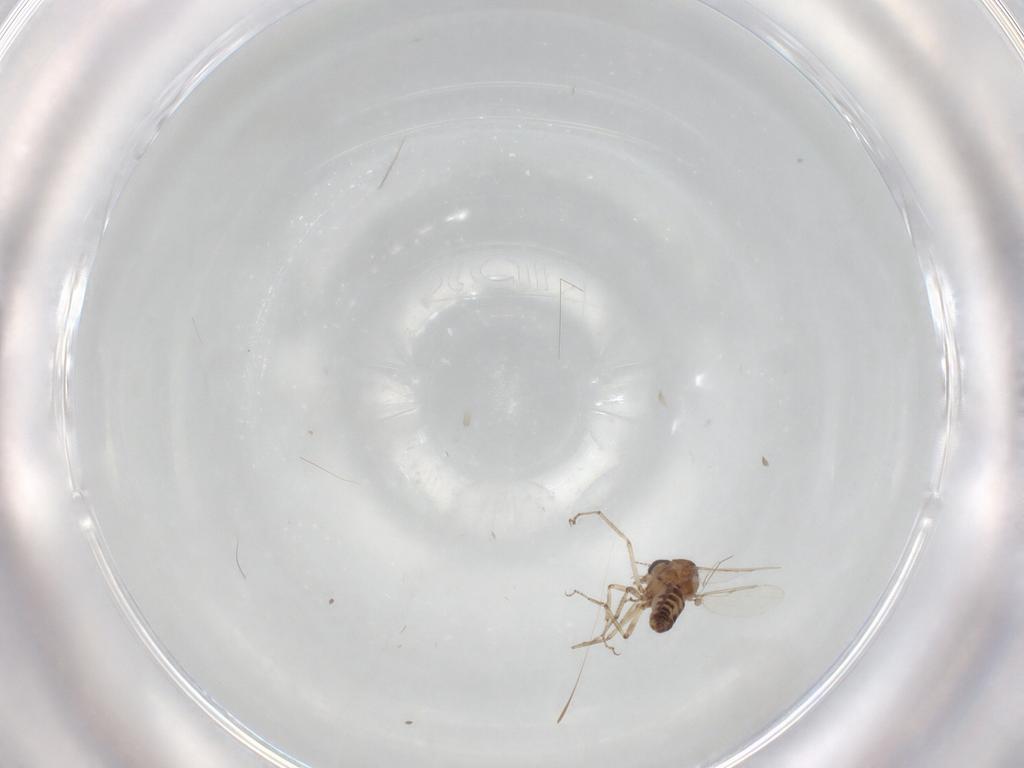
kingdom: Animalia
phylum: Arthropoda
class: Insecta
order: Diptera
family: Ceratopogonidae
